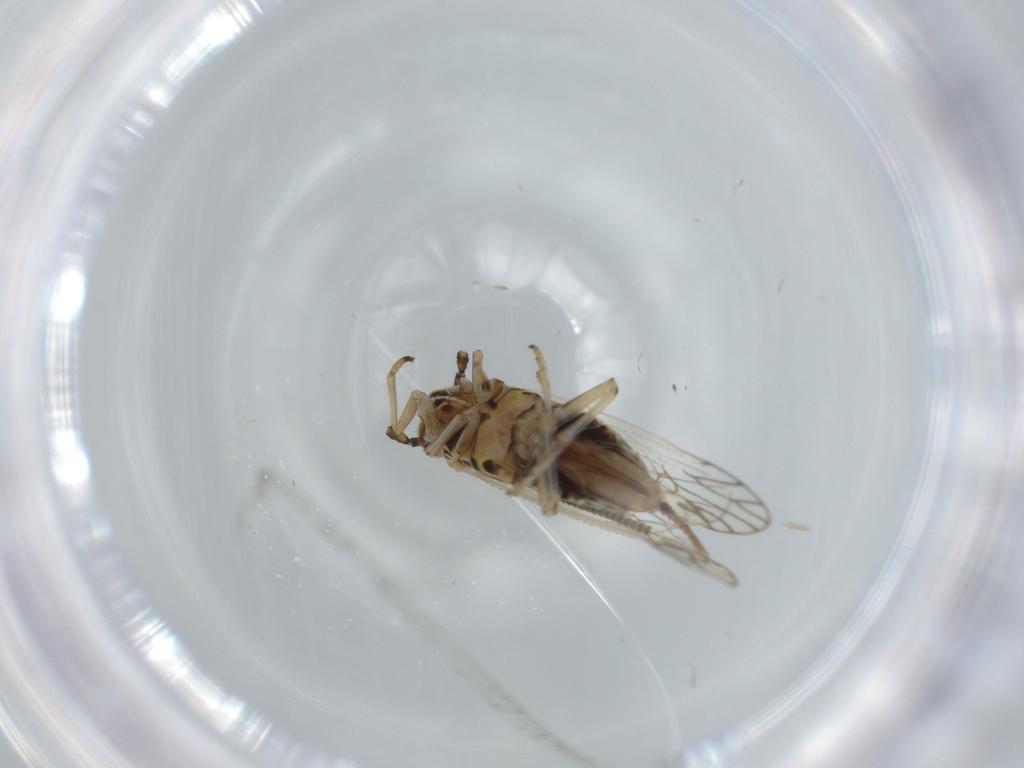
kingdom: Animalia
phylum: Arthropoda
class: Insecta
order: Hemiptera
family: Delphacidae
